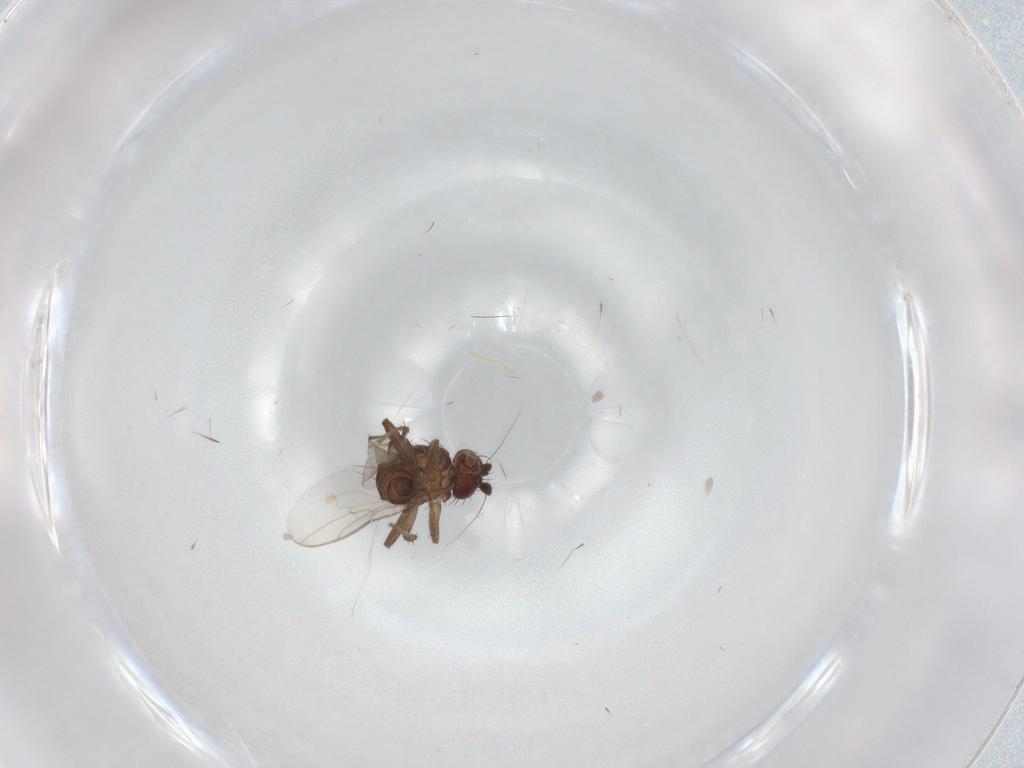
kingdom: Animalia
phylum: Arthropoda
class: Insecta
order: Diptera
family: Sphaeroceridae
